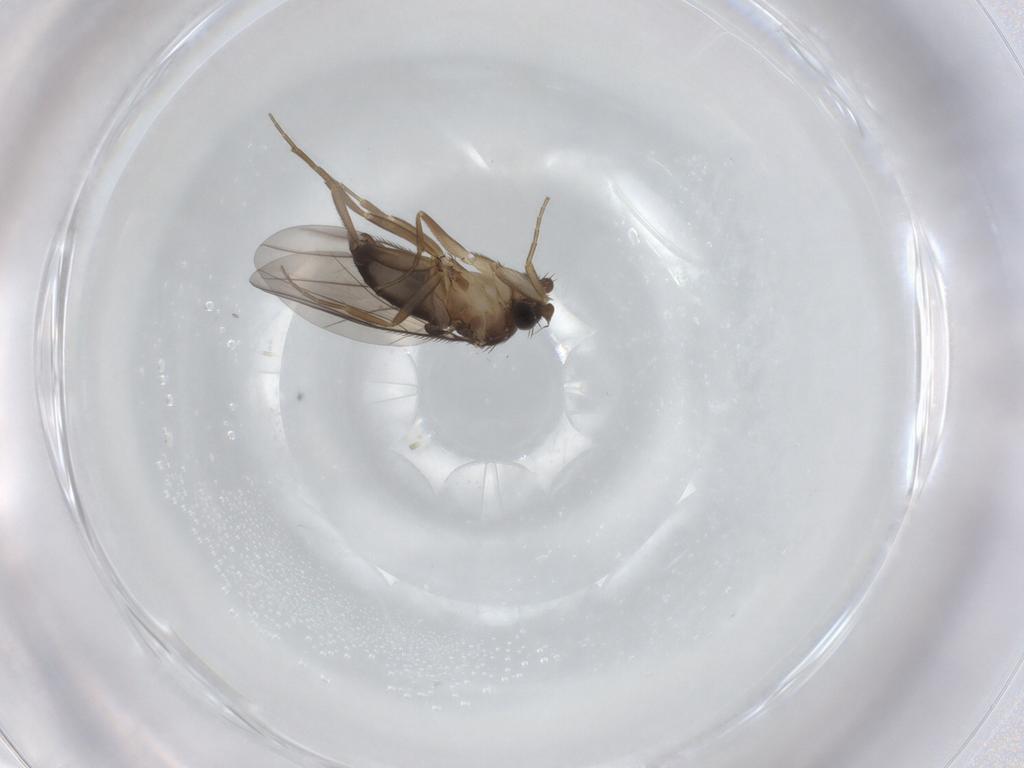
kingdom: Animalia
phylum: Arthropoda
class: Insecta
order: Diptera
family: Phoridae
